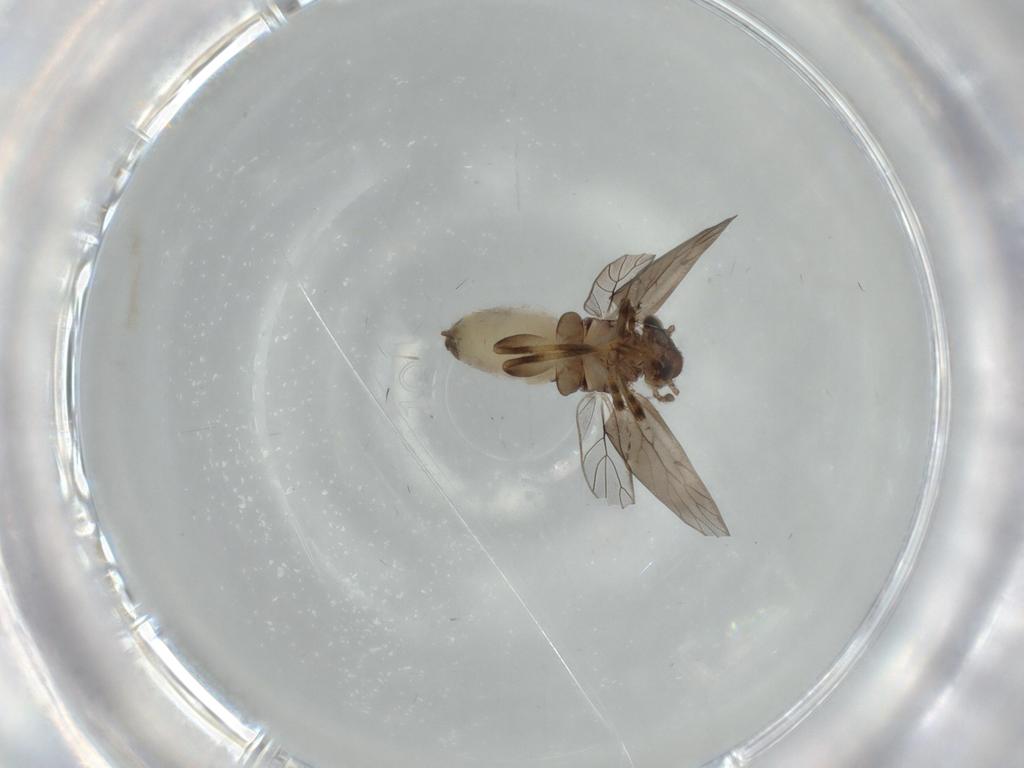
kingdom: Animalia
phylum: Arthropoda
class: Insecta
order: Psocodea
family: Lepidopsocidae
